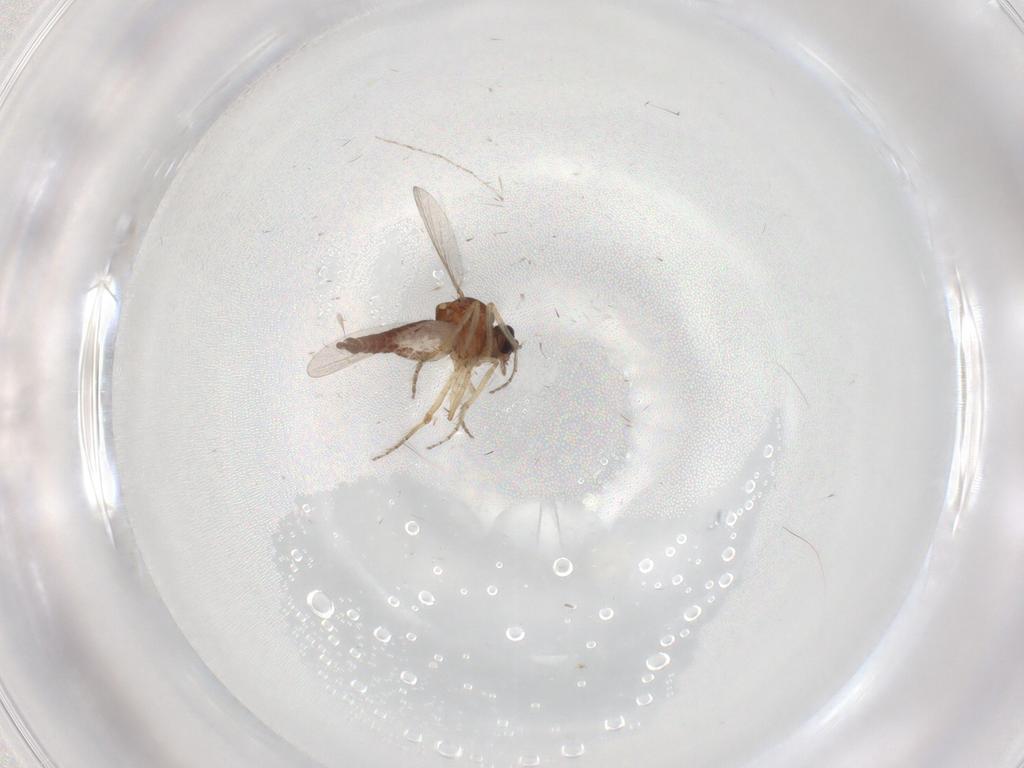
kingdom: Animalia
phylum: Arthropoda
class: Insecta
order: Diptera
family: Ceratopogonidae
